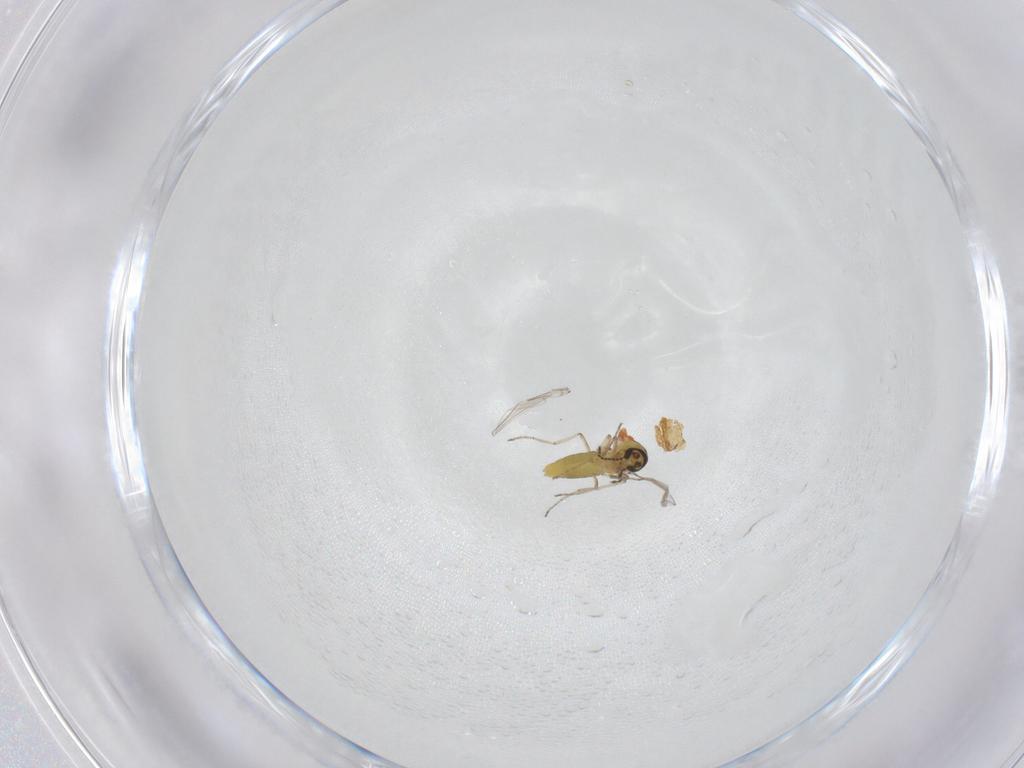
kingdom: Animalia
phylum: Arthropoda
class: Insecta
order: Diptera
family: Ceratopogonidae
